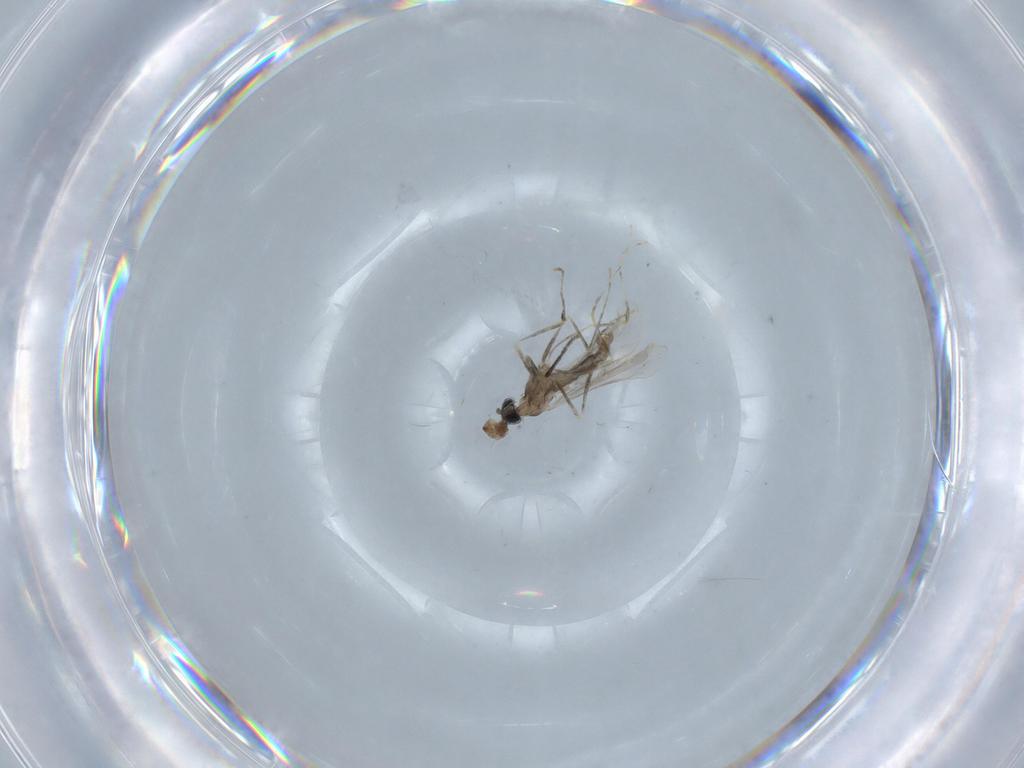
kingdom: Animalia
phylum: Arthropoda
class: Insecta
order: Diptera
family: Cecidomyiidae
